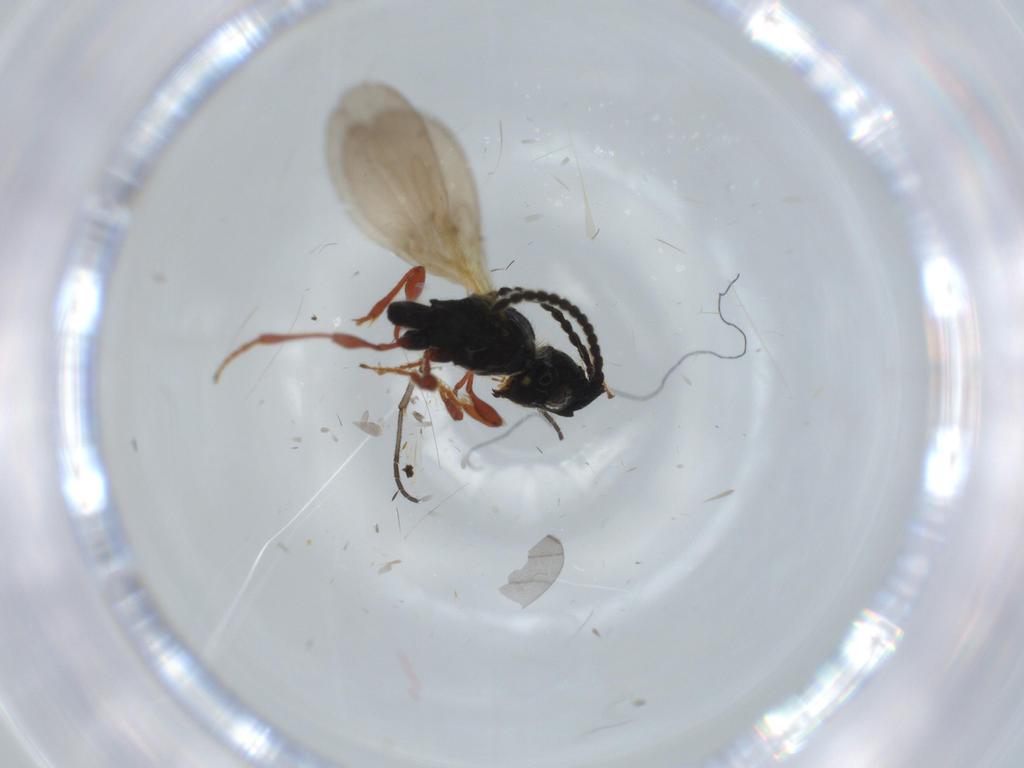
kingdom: Animalia
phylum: Arthropoda
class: Insecta
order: Hymenoptera
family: Diapriidae
